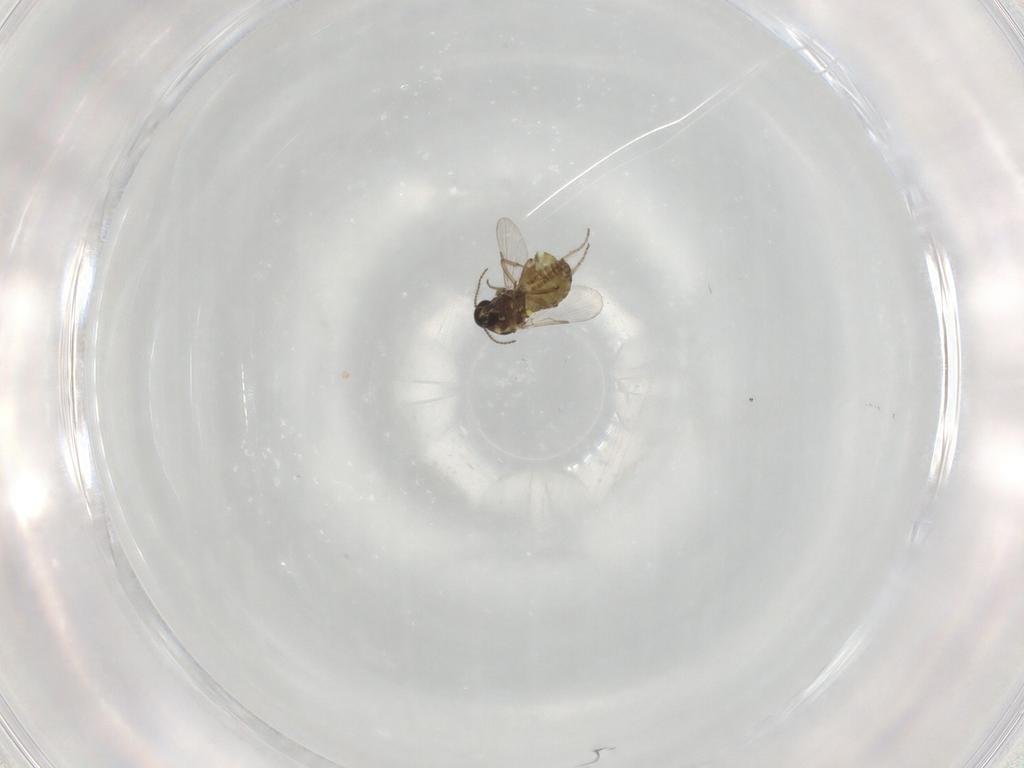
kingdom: Animalia
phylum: Arthropoda
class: Insecta
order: Diptera
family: Ceratopogonidae
